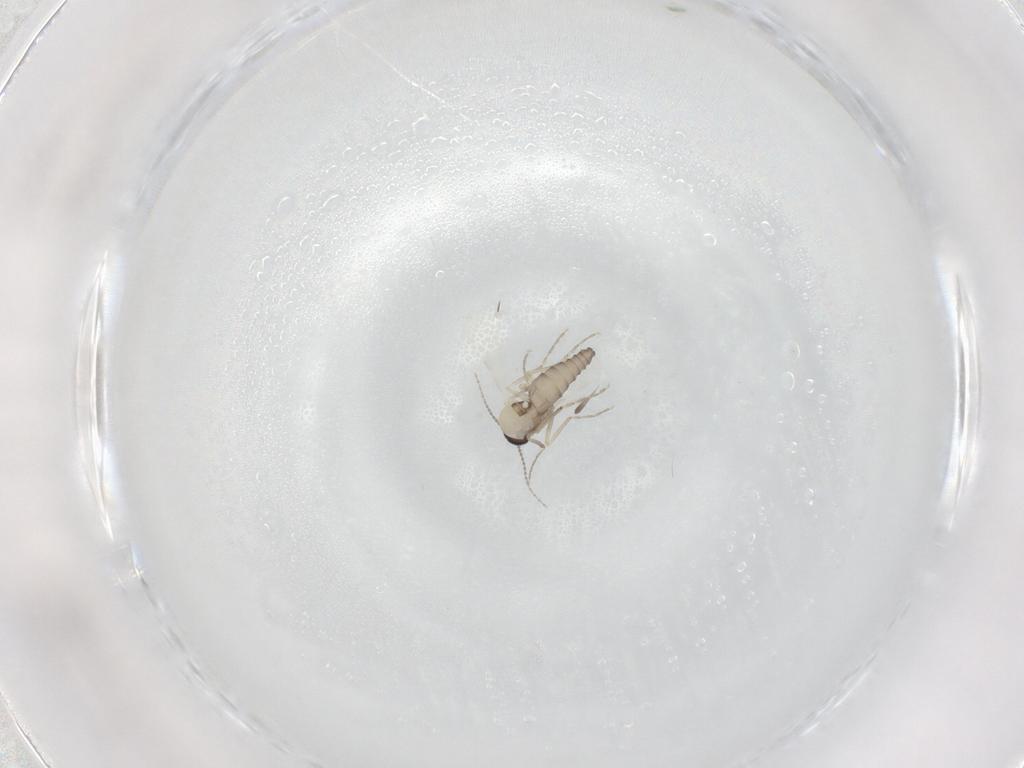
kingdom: Animalia
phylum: Arthropoda
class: Insecta
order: Diptera
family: Ceratopogonidae
